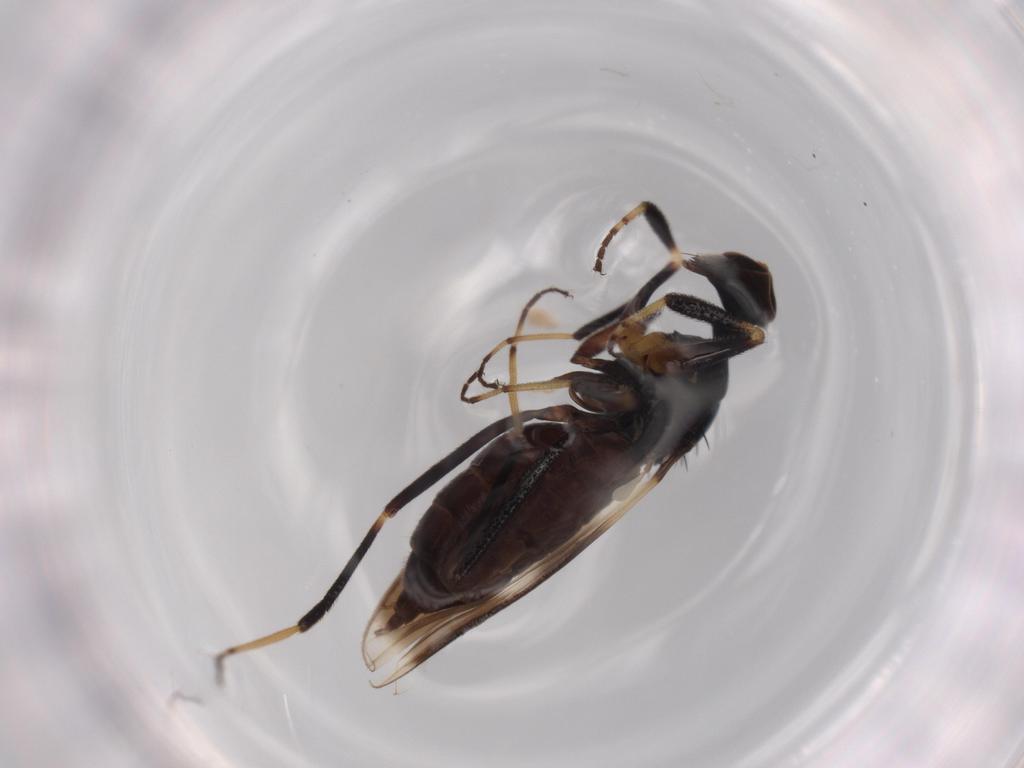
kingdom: Animalia
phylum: Arthropoda
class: Insecta
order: Diptera
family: Hybotidae
